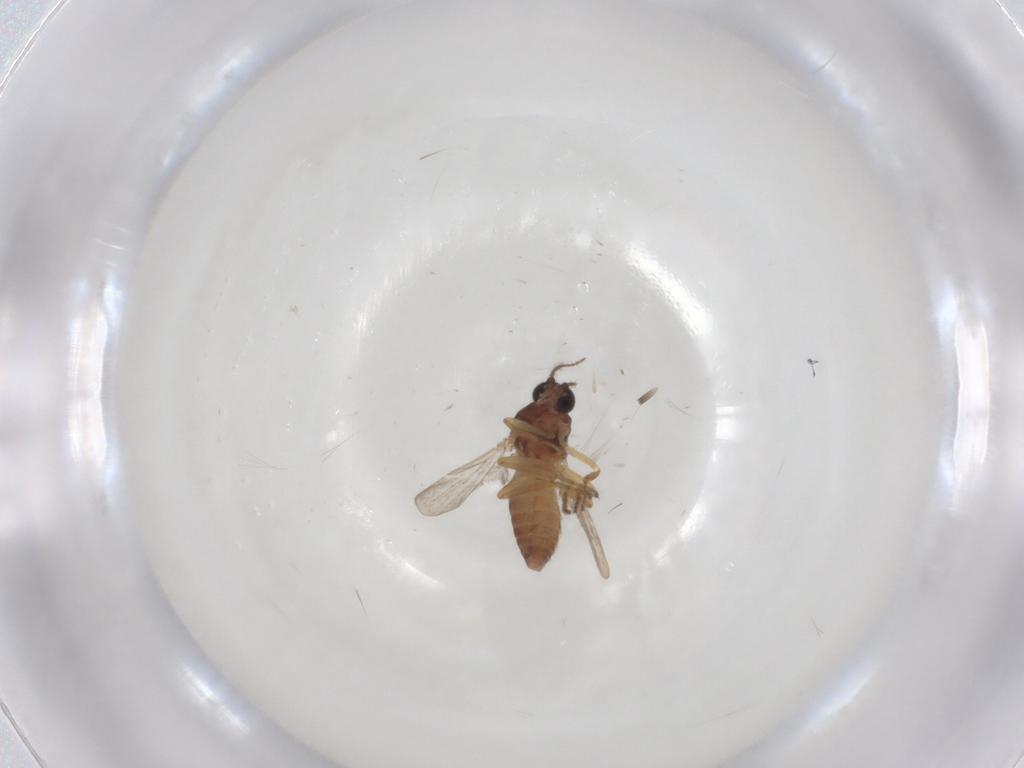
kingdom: Animalia
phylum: Arthropoda
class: Insecta
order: Diptera
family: Ceratopogonidae
